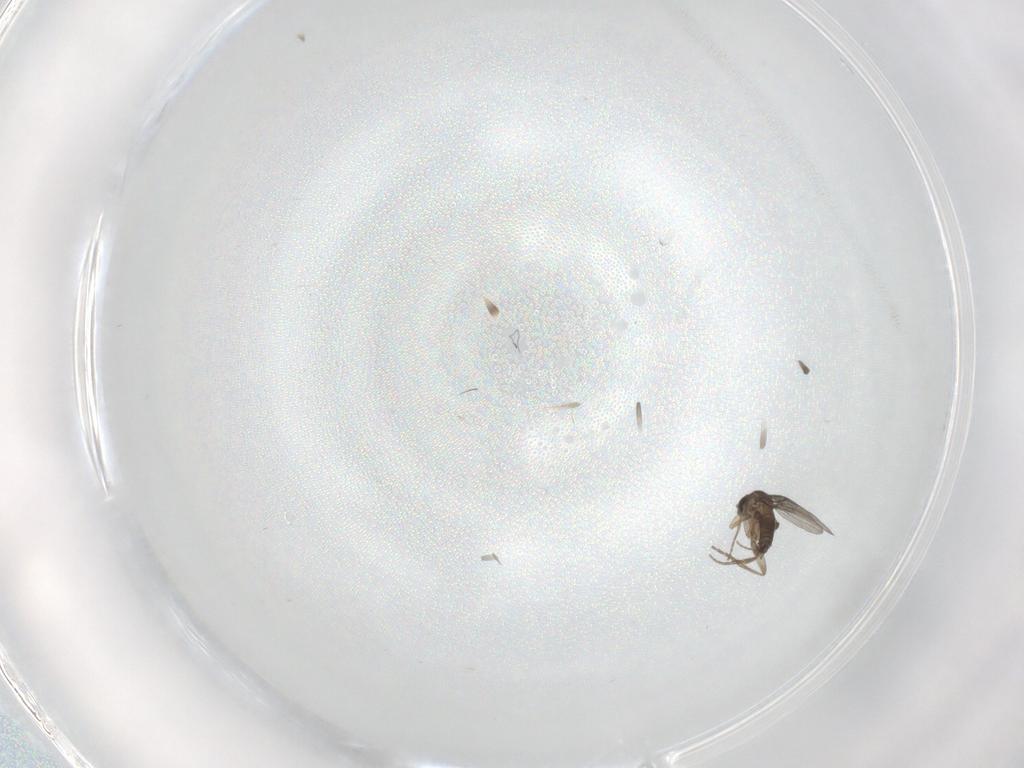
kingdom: Animalia
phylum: Arthropoda
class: Insecta
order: Diptera
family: Phoridae
